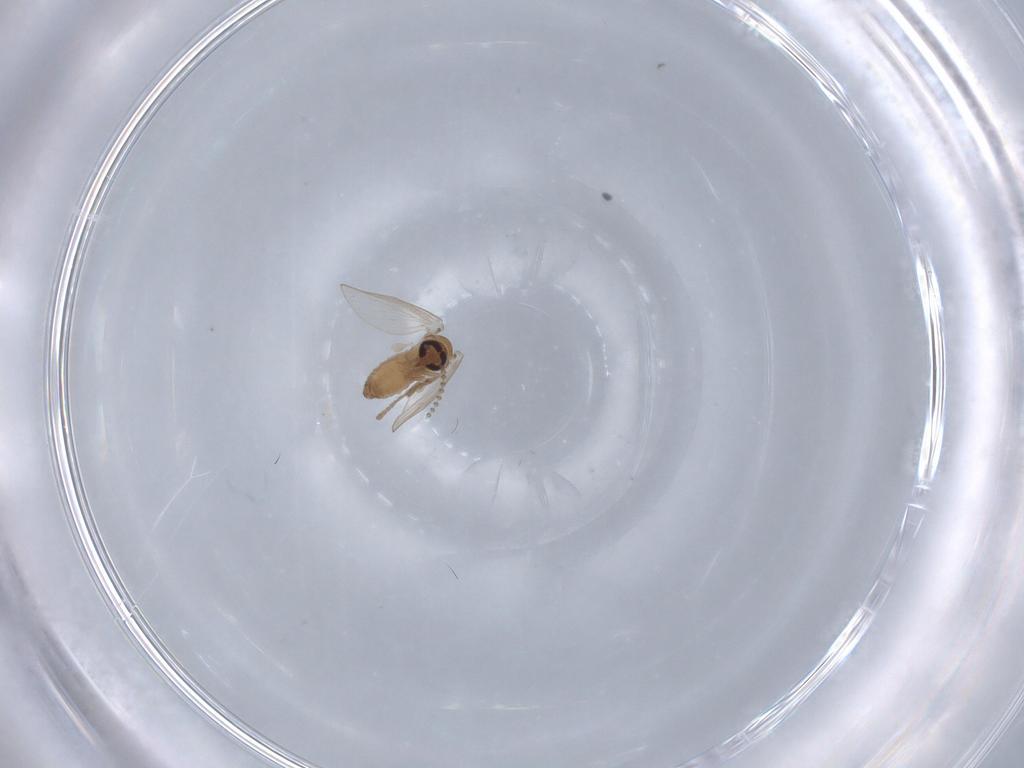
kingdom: Animalia
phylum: Arthropoda
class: Insecta
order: Diptera
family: Psychodidae
